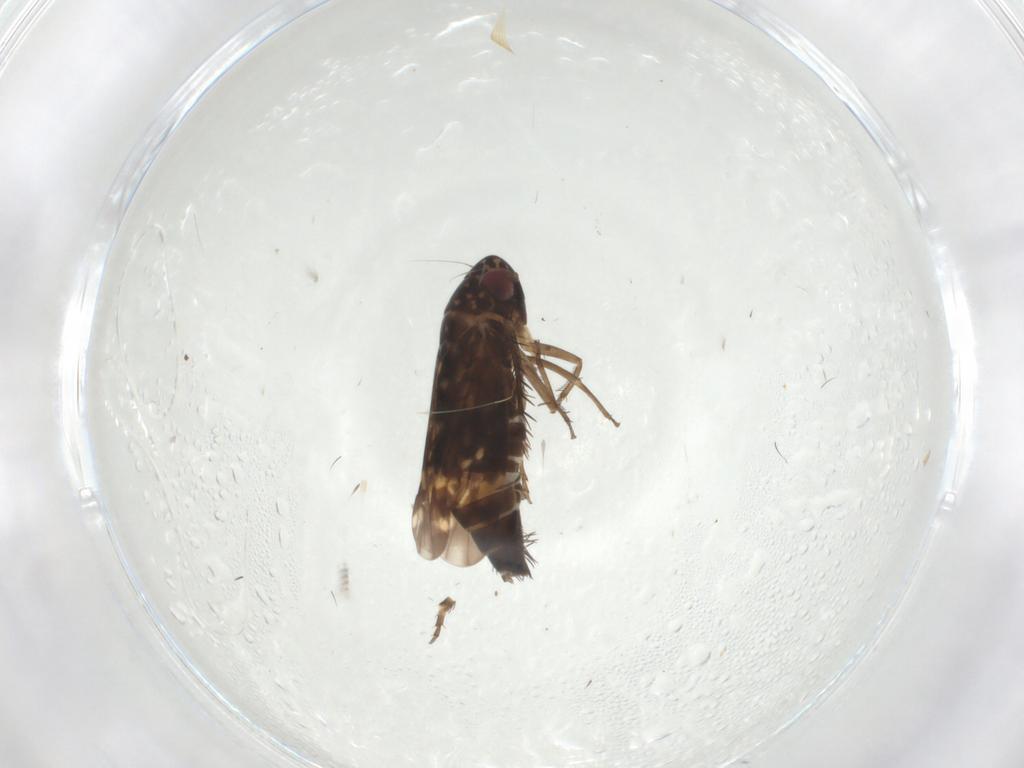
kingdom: Animalia
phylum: Arthropoda
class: Insecta
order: Hemiptera
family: Cicadellidae
